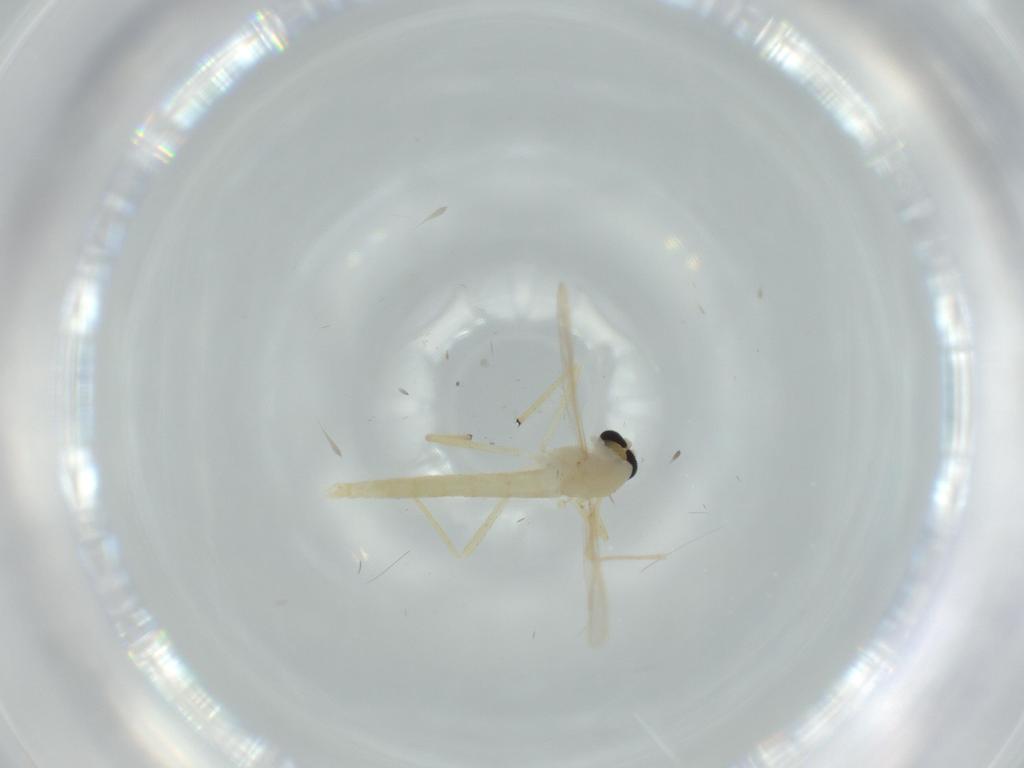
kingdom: Animalia
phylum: Arthropoda
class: Insecta
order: Diptera
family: Chironomidae
